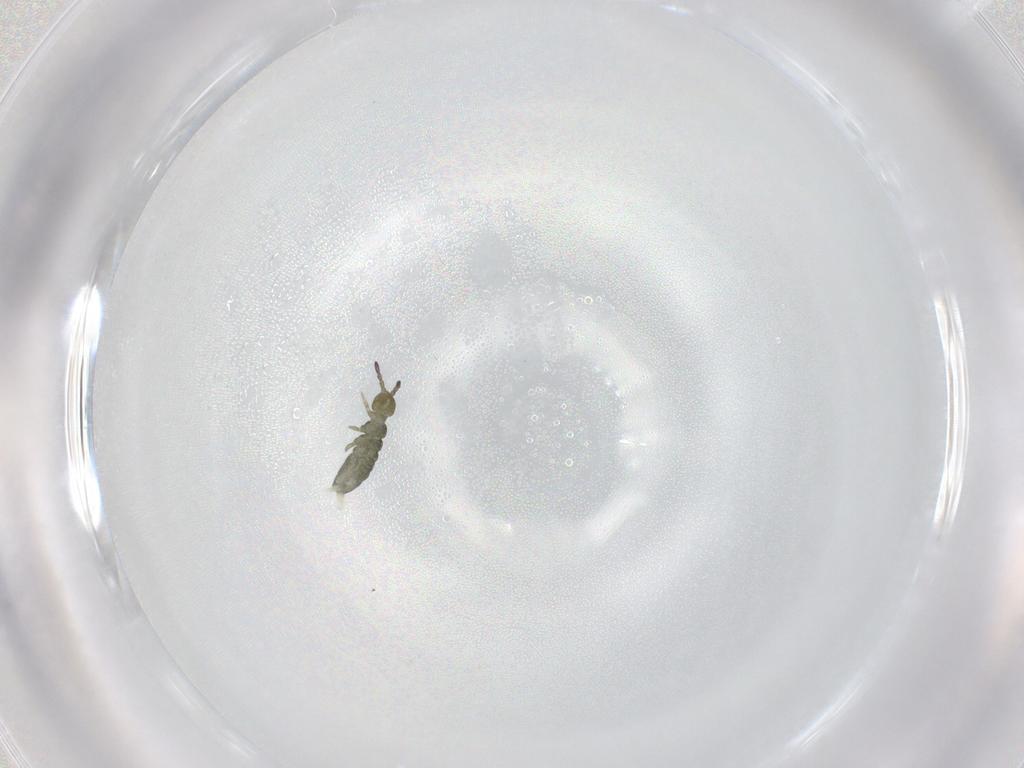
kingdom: Animalia
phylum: Arthropoda
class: Collembola
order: Entomobryomorpha
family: Isotomidae
